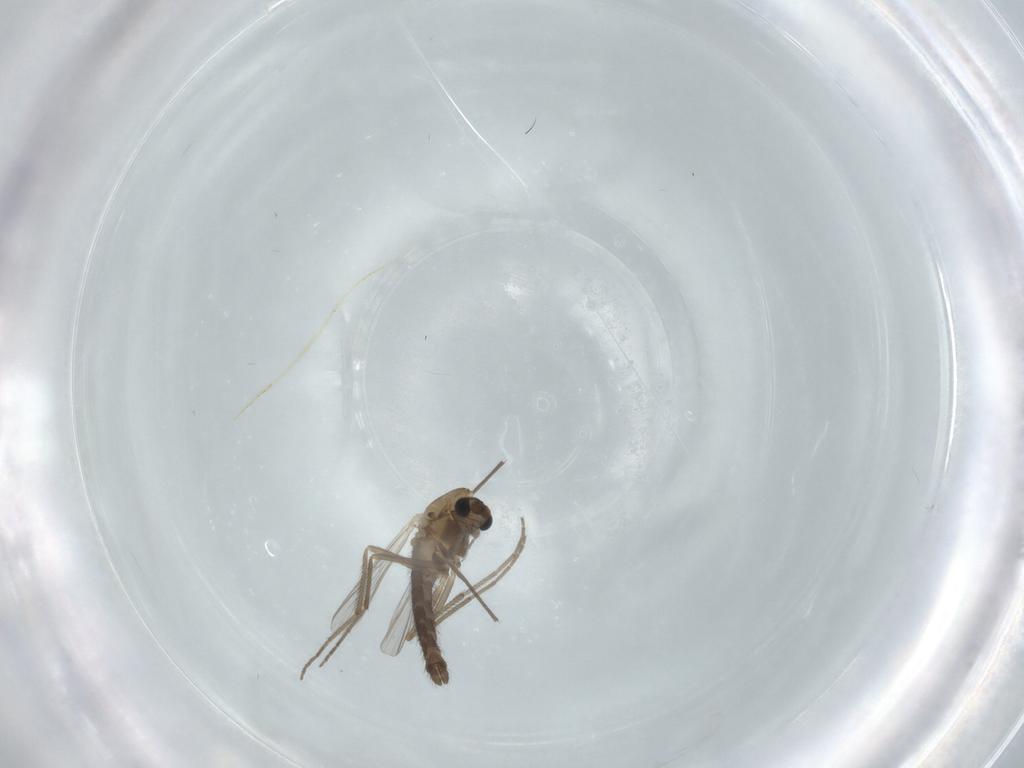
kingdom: Animalia
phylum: Arthropoda
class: Insecta
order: Diptera
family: Chironomidae
